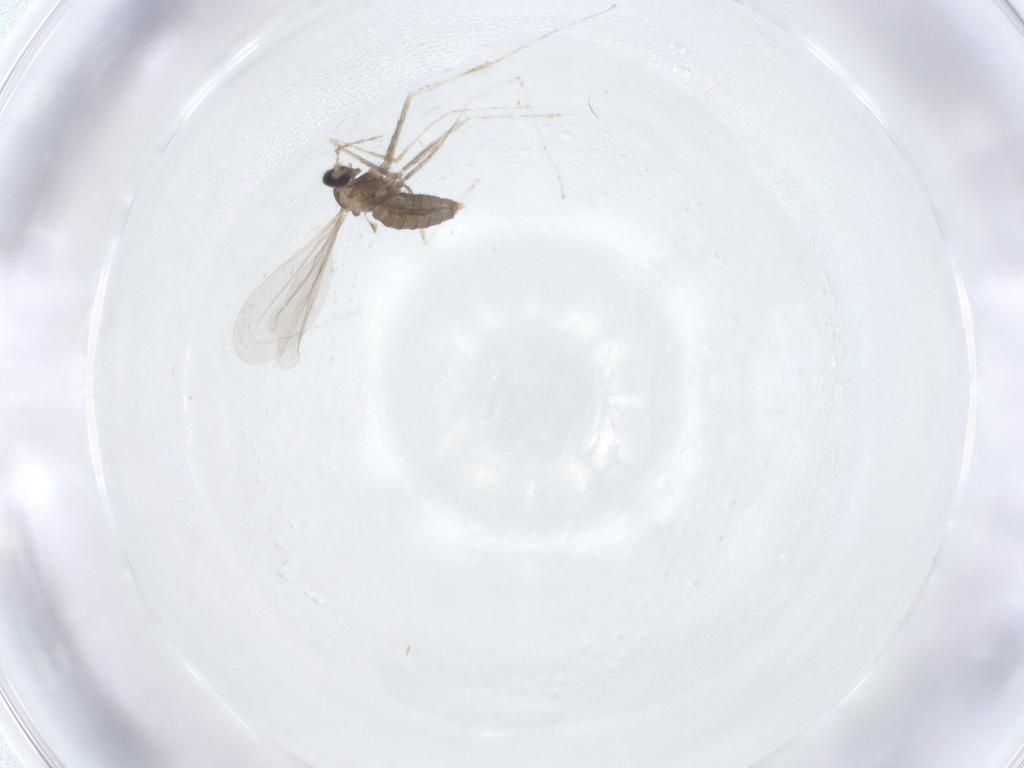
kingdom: Animalia
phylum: Arthropoda
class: Insecta
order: Diptera
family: Cecidomyiidae
